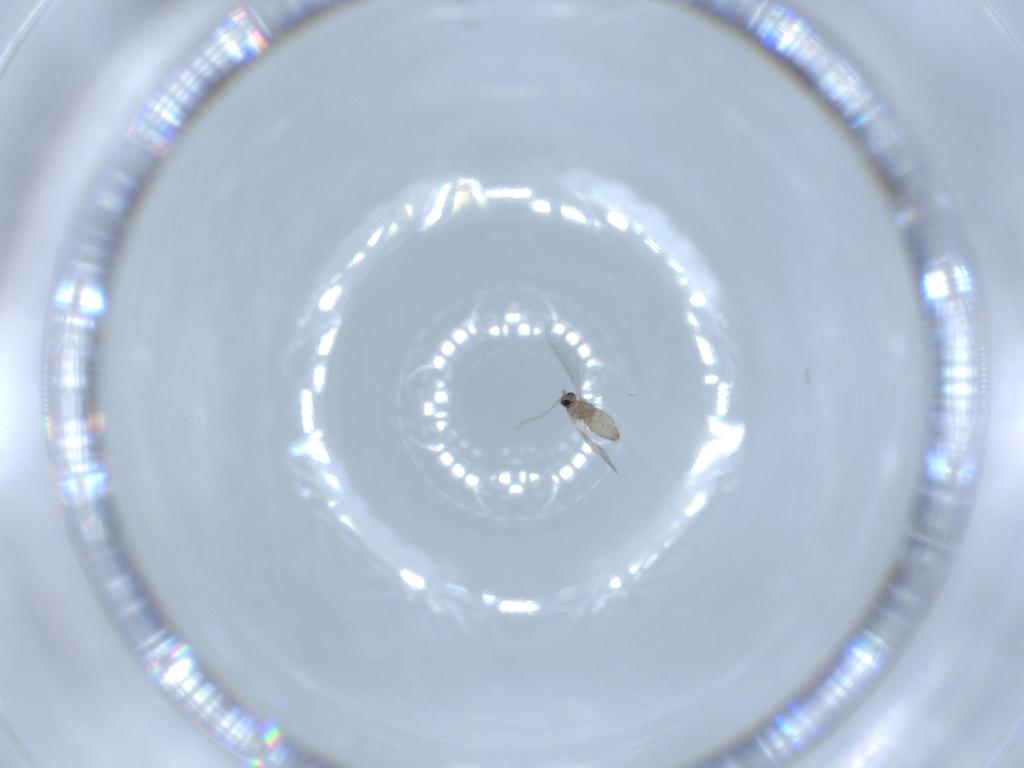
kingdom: Animalia
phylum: Arthropoda
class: Insecta
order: Diptera
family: Cecidomyiidae
